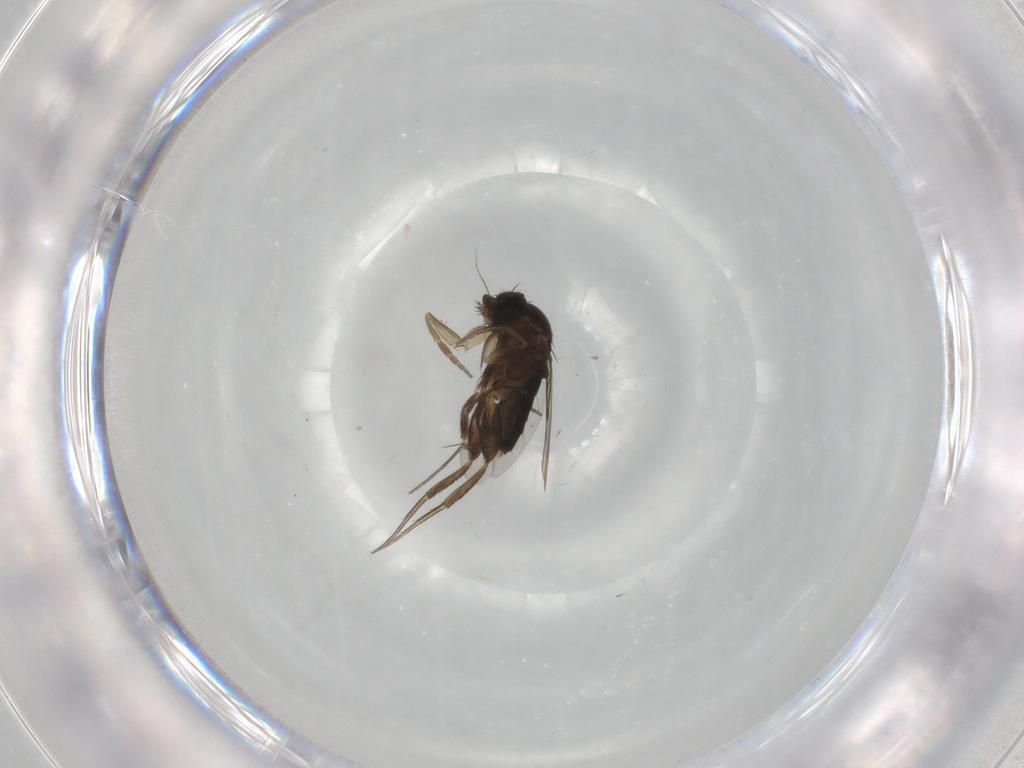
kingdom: Animalia
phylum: Arthropoda
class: Insecta
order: Diptera
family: Phoridae
